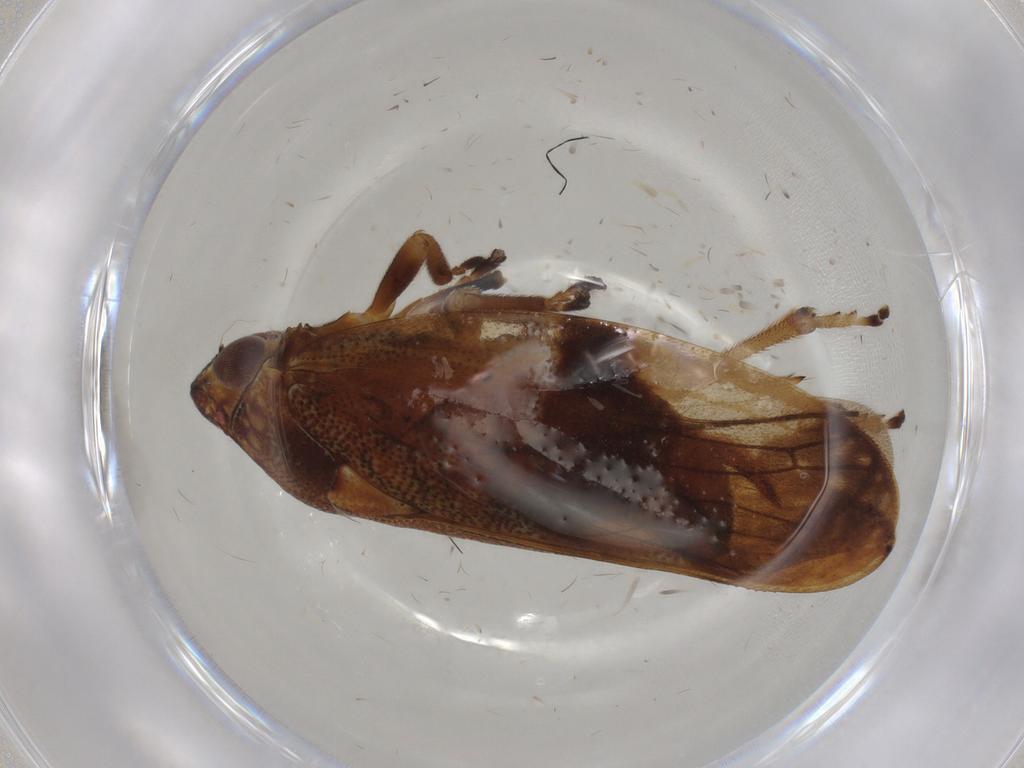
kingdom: Animalia
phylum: Arthropoda
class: Insecta
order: Hemiptera
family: Aphrophoridae
